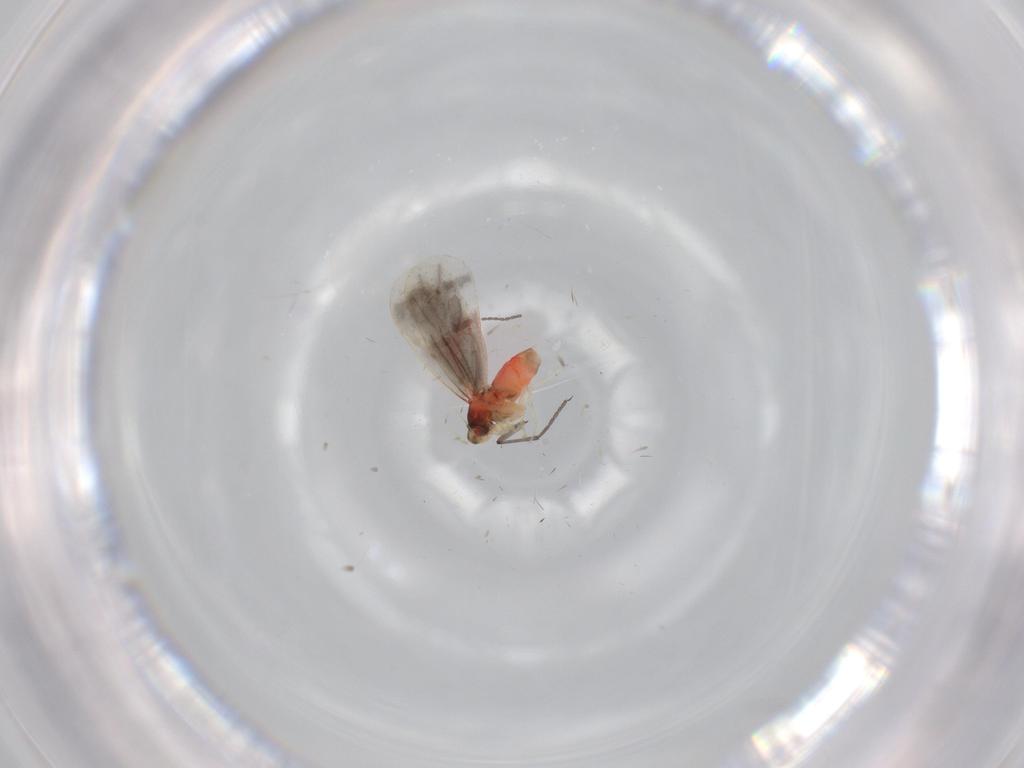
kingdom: Animalia
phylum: Arthropoda
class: Insecta
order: Hemiptera
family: Aleyrodidae
